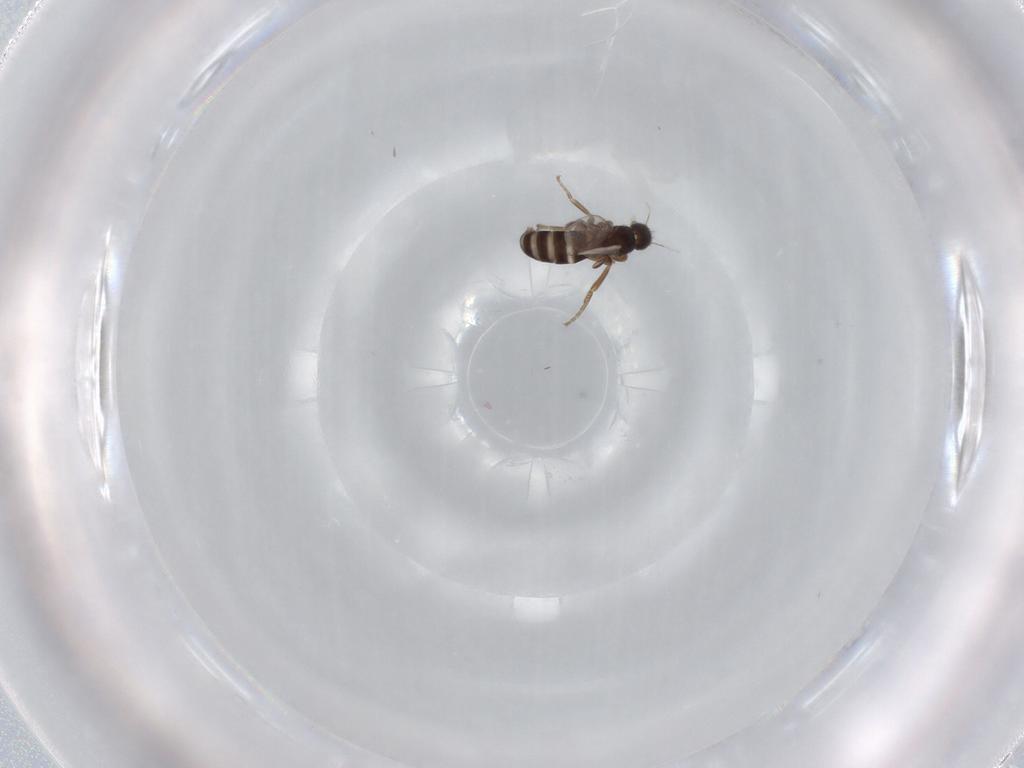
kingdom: Animalia
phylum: Arthropoda
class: Insecta
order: Diptera
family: Phoridae
